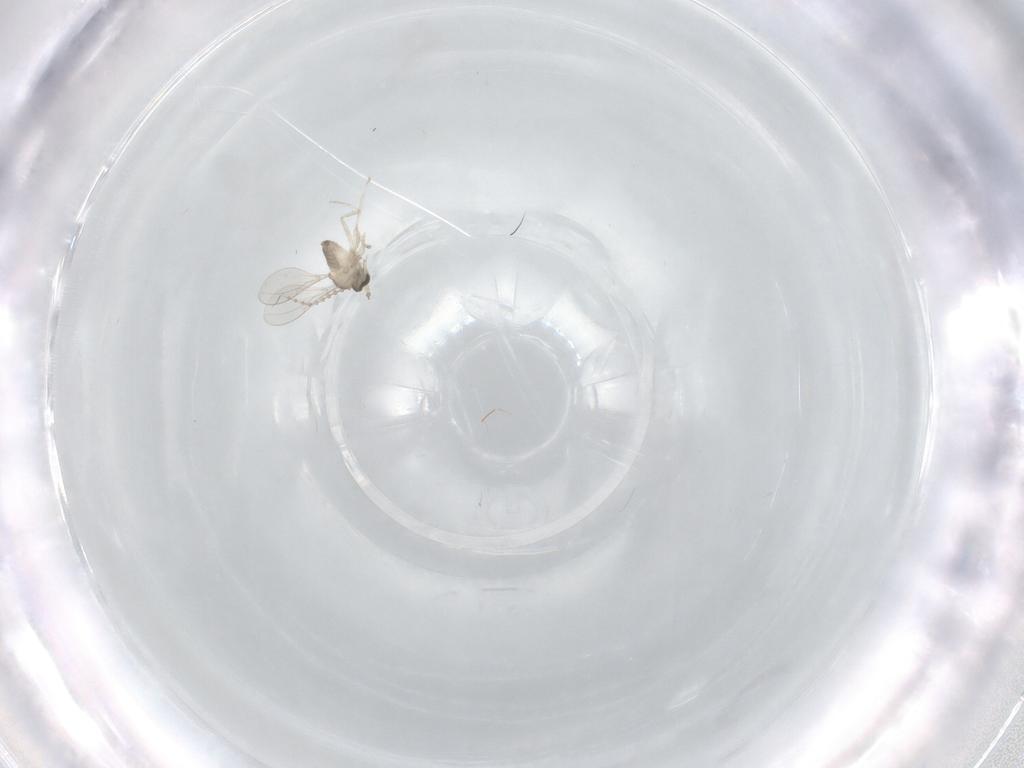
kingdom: Animalia
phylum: Arthropoda
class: Insecta
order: Diptera
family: Cecidomyiidae
